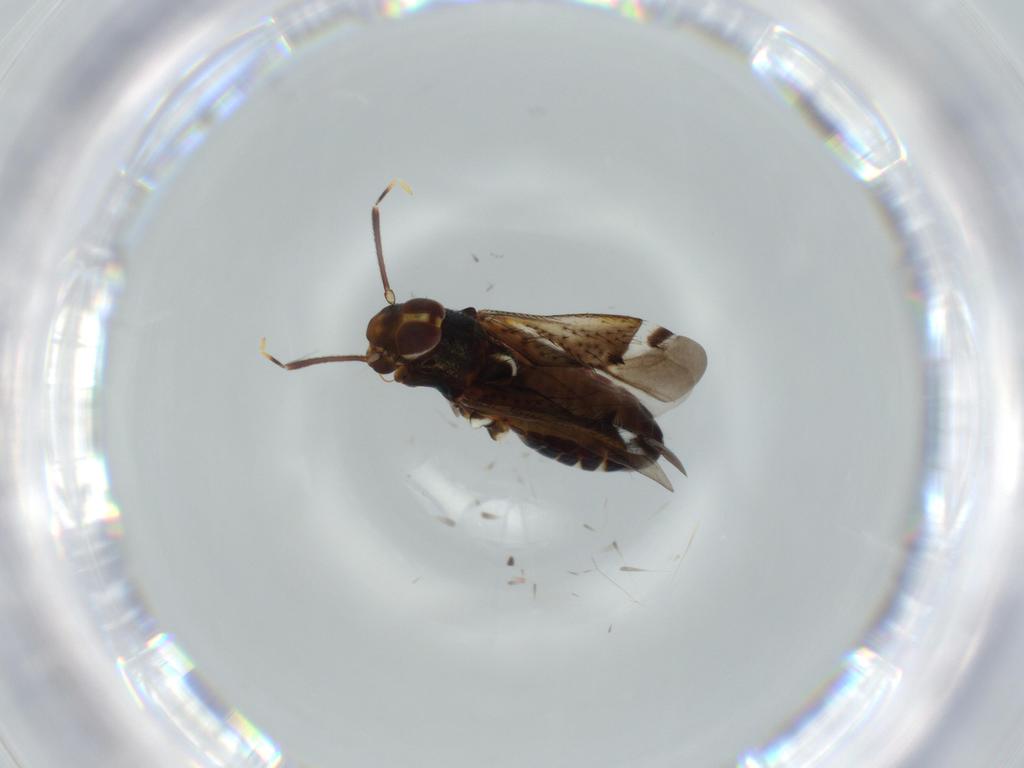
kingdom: Animalia
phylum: Arthropoda
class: Insecta
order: Hemiptera
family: Miridae
